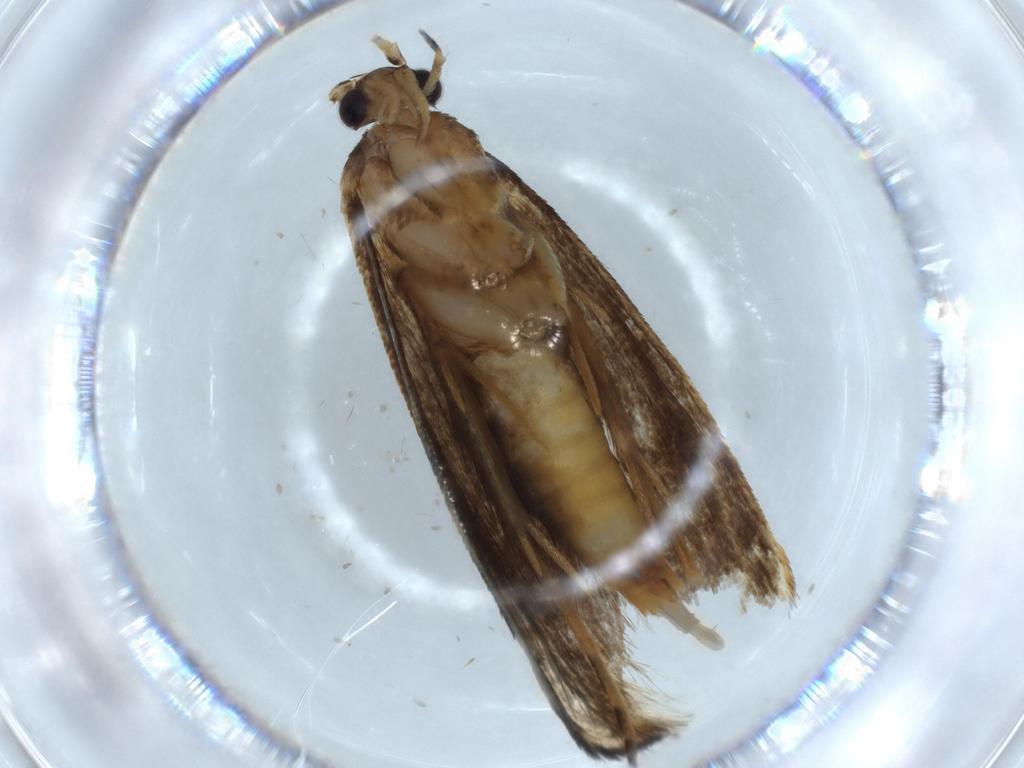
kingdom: Animalia
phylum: Arthropoda
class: Insecta
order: Lepidoptera
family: Tineidae
